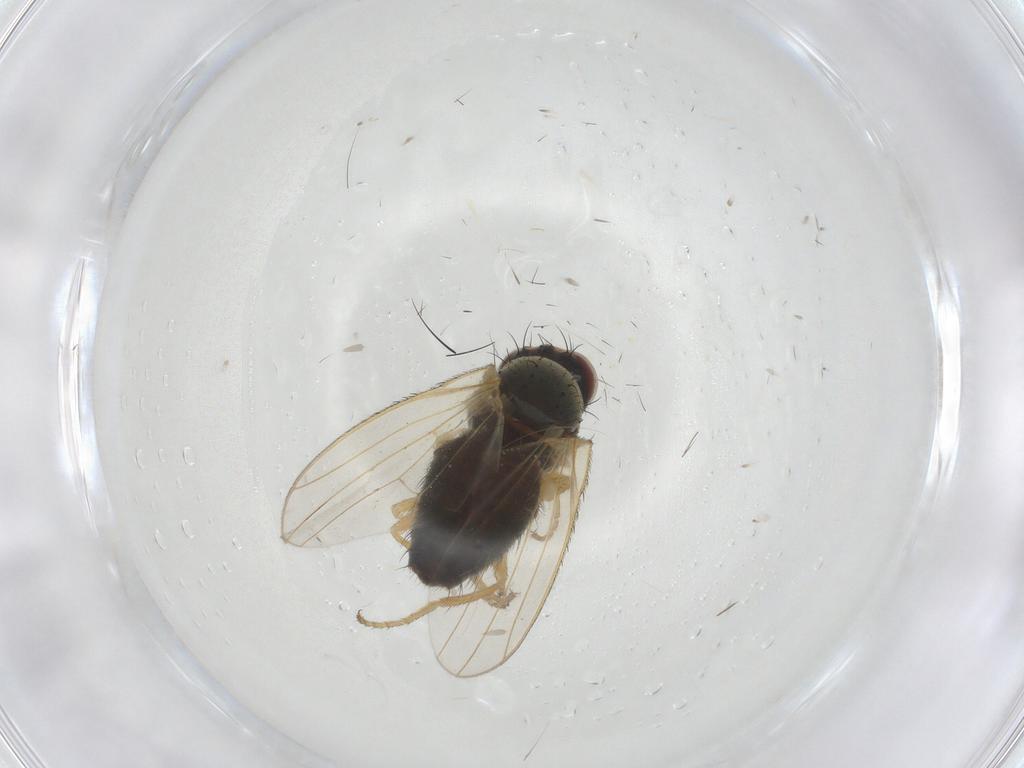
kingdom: Animalia
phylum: Arthropoda
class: Insecta
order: Diptera
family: Heleomyzidae
